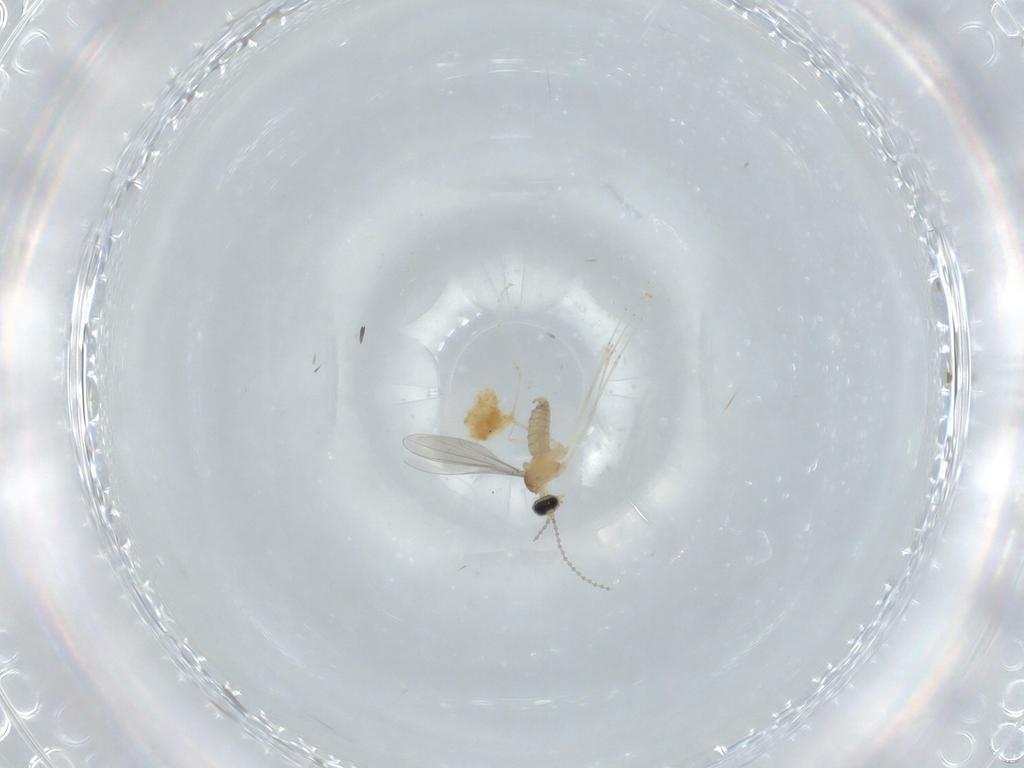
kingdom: Animalia
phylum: Arthropoda
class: Insecta
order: Diptera
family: Cecidomyiidae
